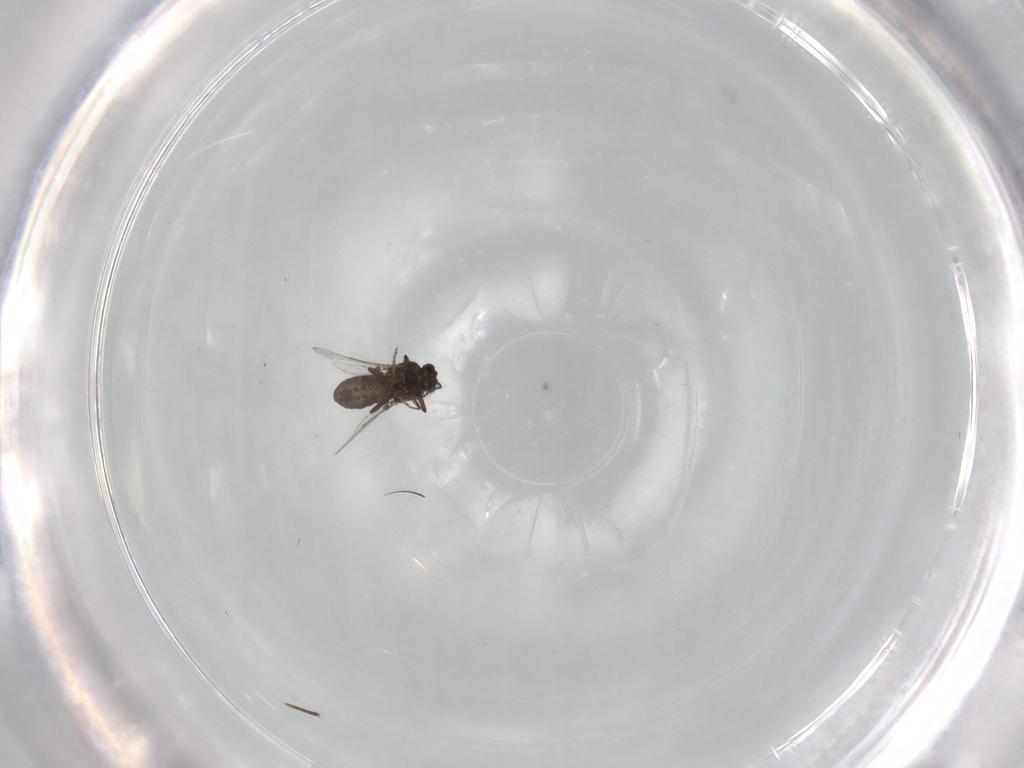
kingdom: Animalia
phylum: Arthropoda
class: Insecta
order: Diptera
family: Ceratopogonidae
